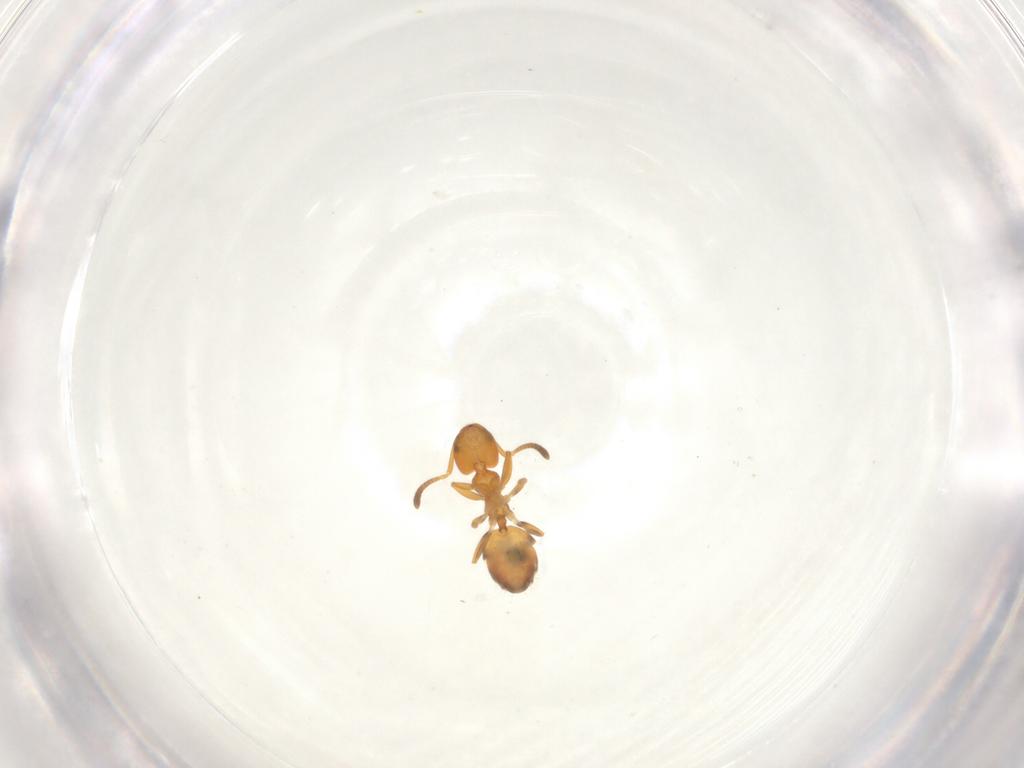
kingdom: Animalia
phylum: Arthropoda
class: Insecta
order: Hymenoptera
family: Formicidae
